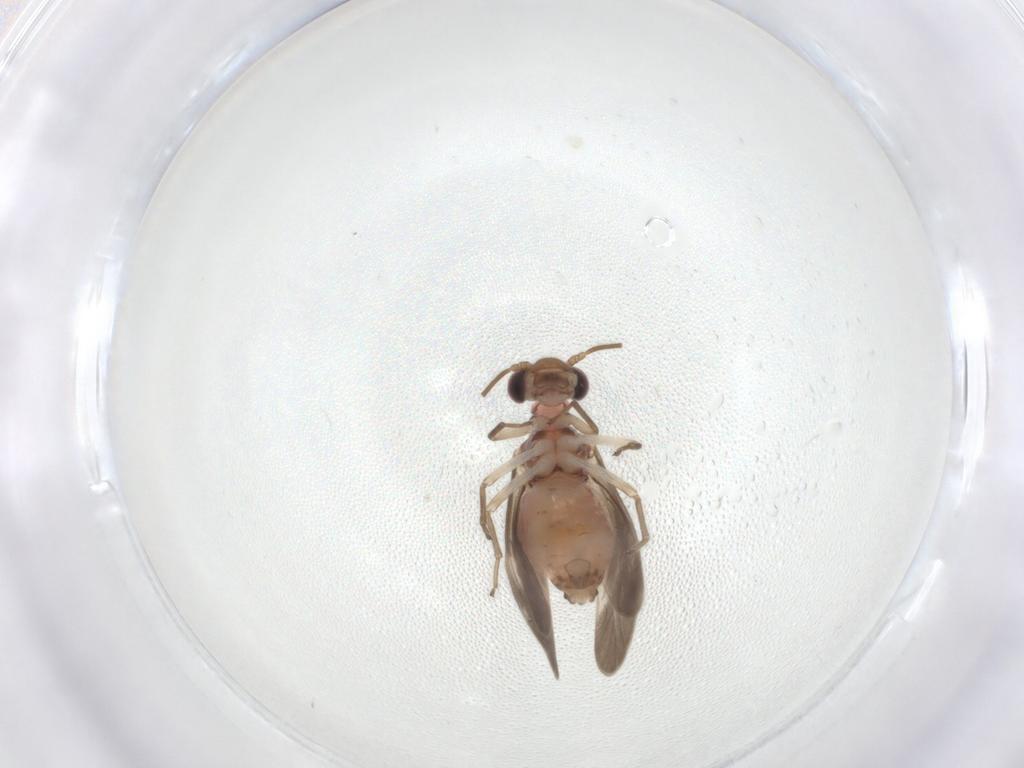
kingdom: Animalia
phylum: Arthropoda
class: Insecta
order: Psocodea
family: Caeciliusidae
